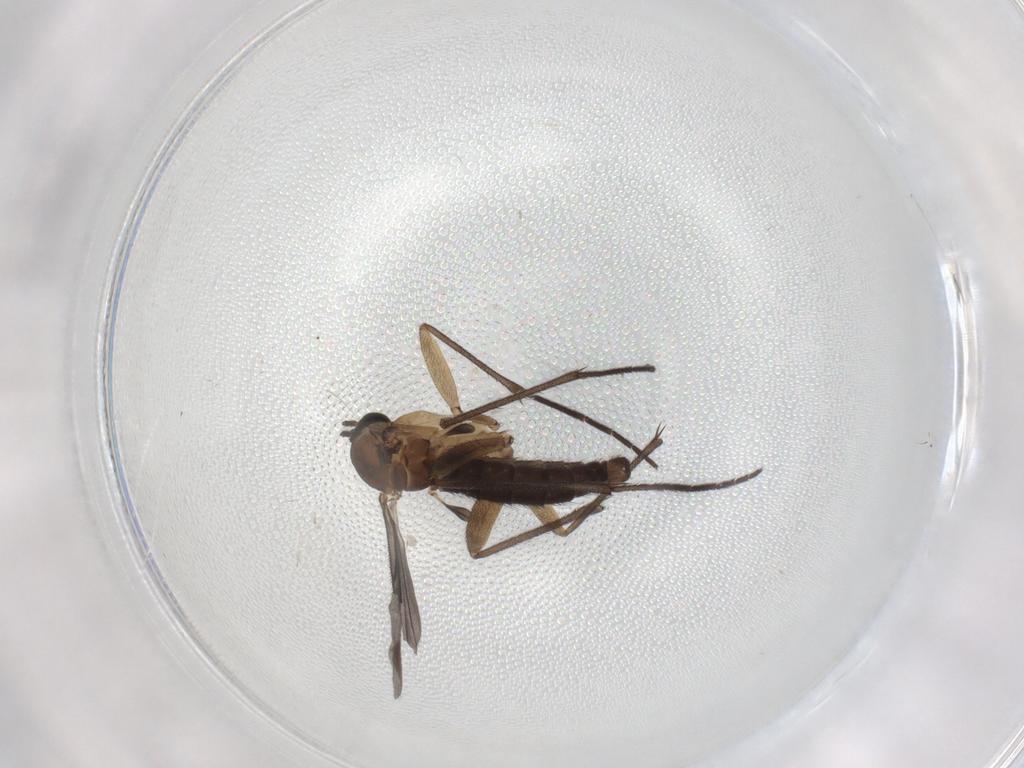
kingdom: Animalia
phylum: Arthropoda
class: Insecta
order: Diptera
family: Sciaridae
